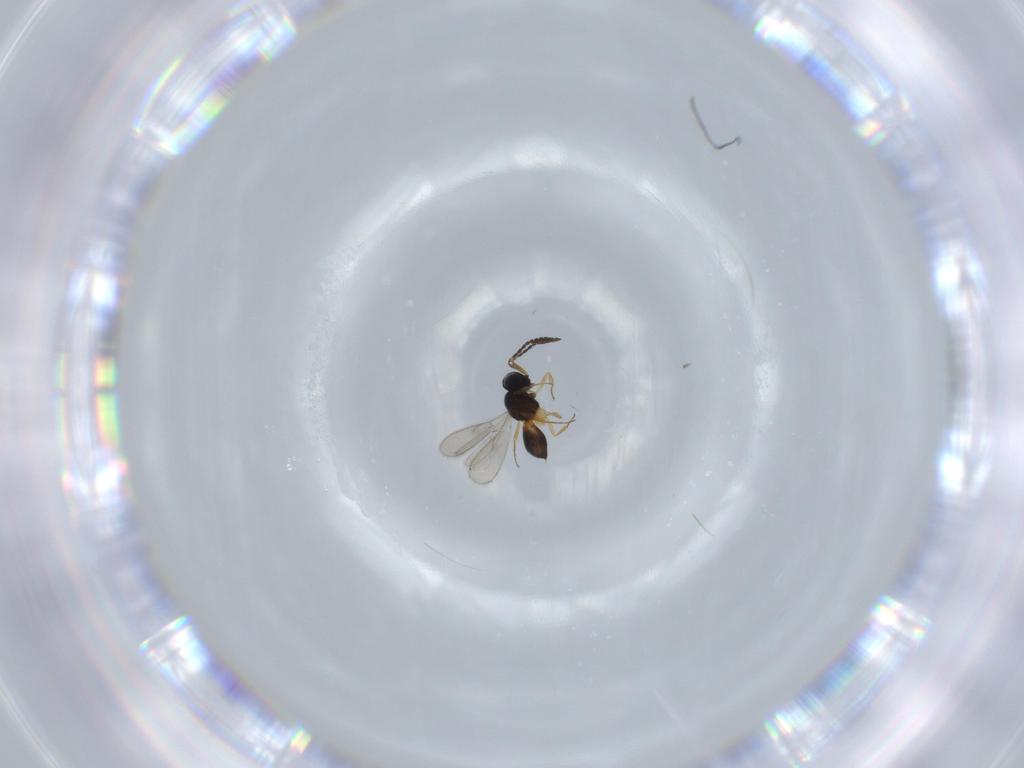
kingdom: Animalia
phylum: Arthropoda
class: Insecta
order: Hymenoptera
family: Scelionidae
